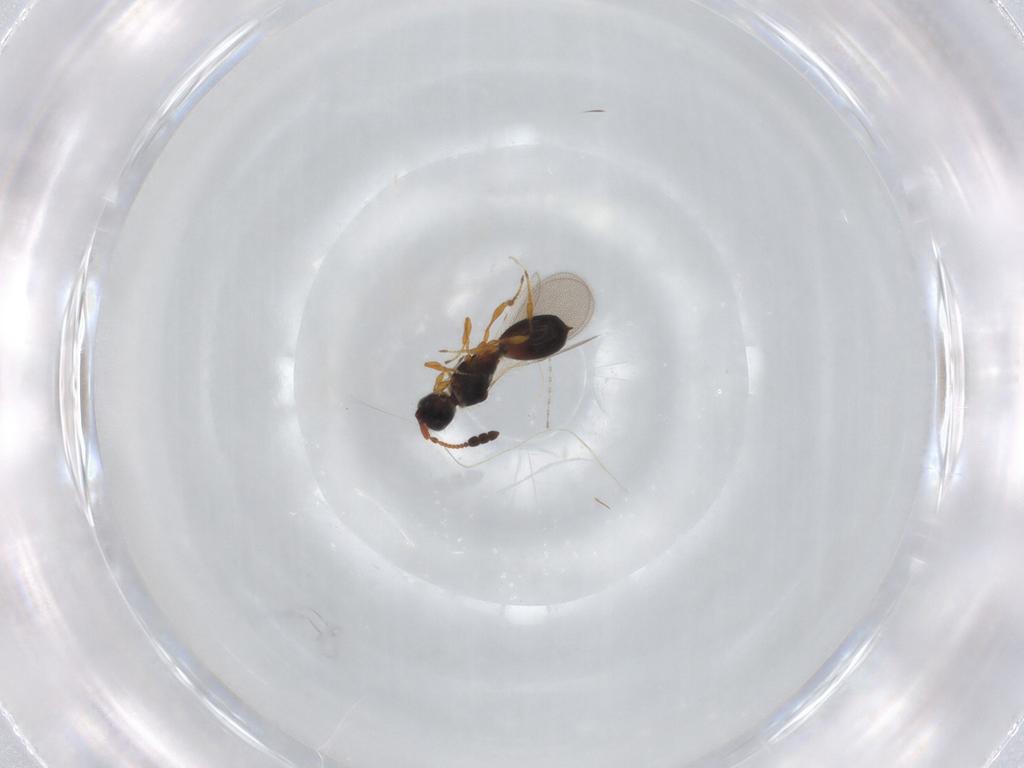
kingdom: Animalia
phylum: Arthropoda
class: Insecta
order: Hymenoptera
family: Diapriidae
